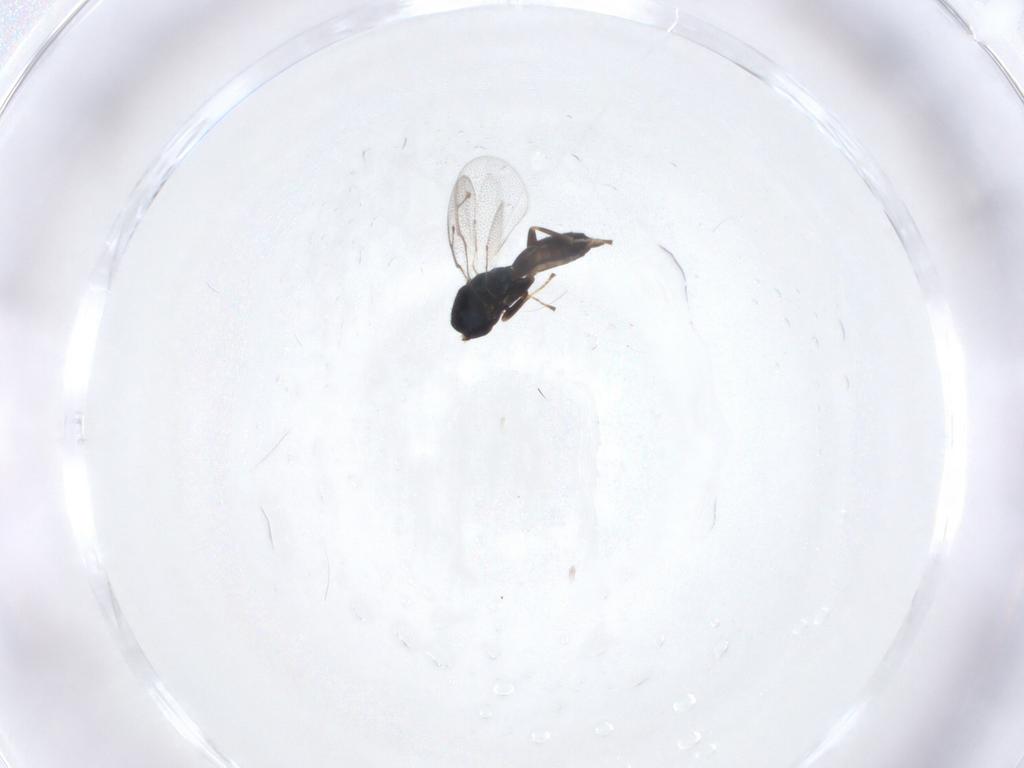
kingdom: Animalia
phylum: Arthropoda
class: Insecta
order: Hymenoptera
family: Pteromalidae
